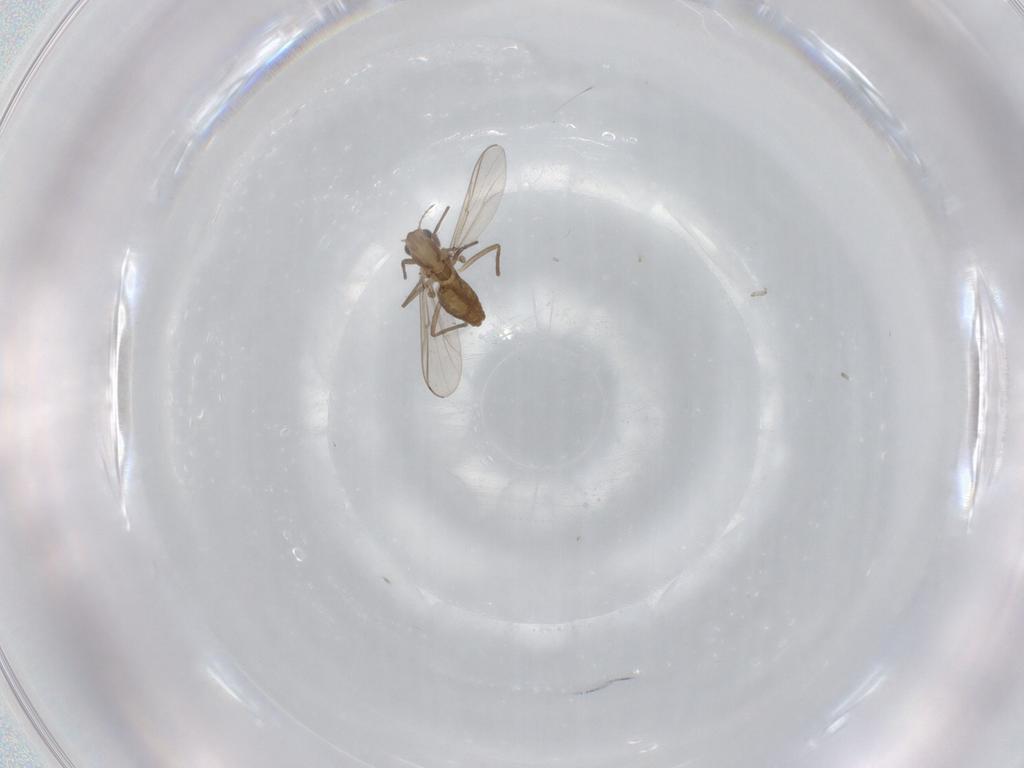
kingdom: Animalia
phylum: Arthropoda
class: Insecta
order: Diptera
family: Chironomidae
